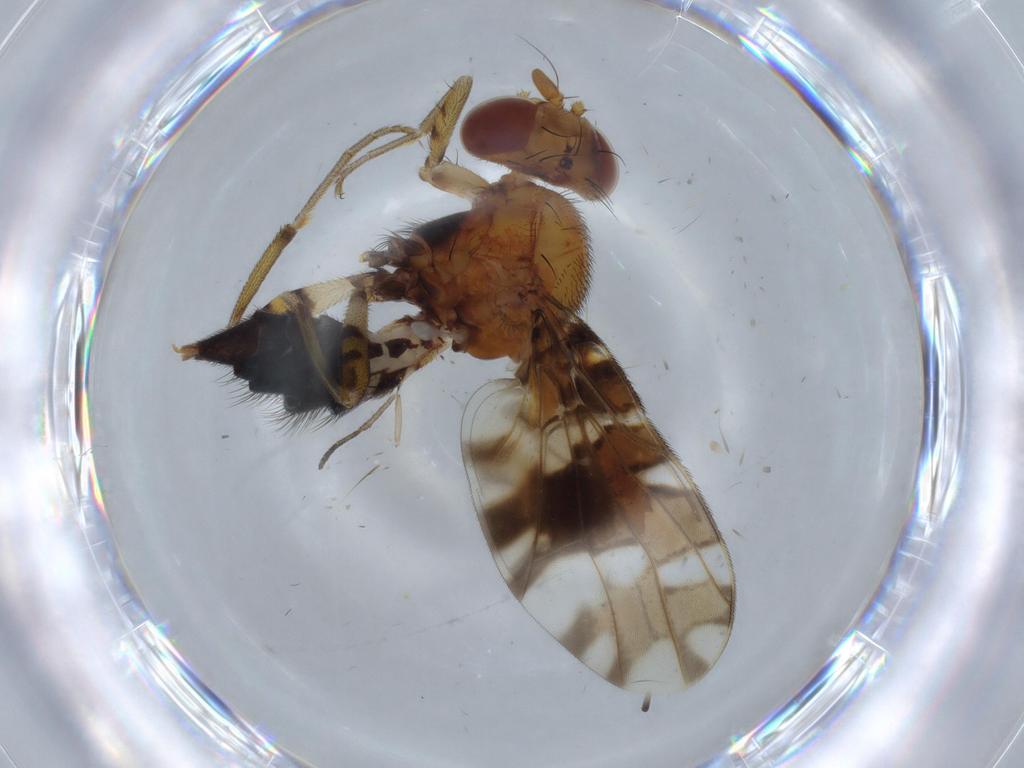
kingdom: Animalia
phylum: Arthropoda
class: Insecta
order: Diptera
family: Ulidiidae
